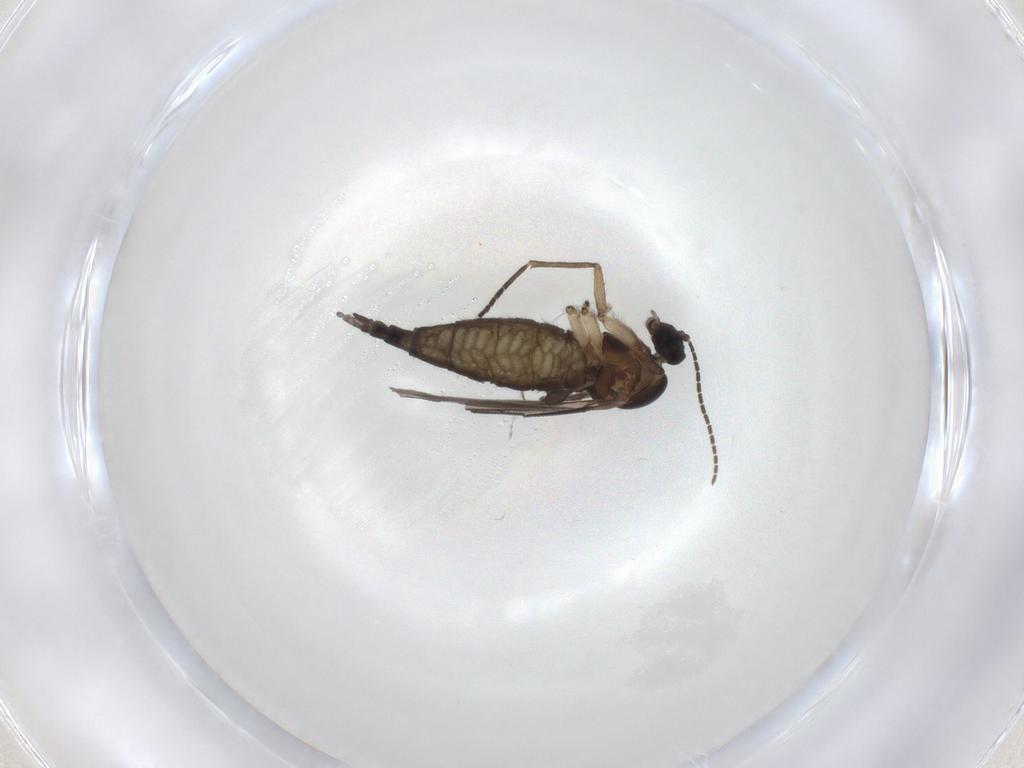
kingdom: Animalia
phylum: Arthropoda
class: Insecta
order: Diptera
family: Sciaridae
